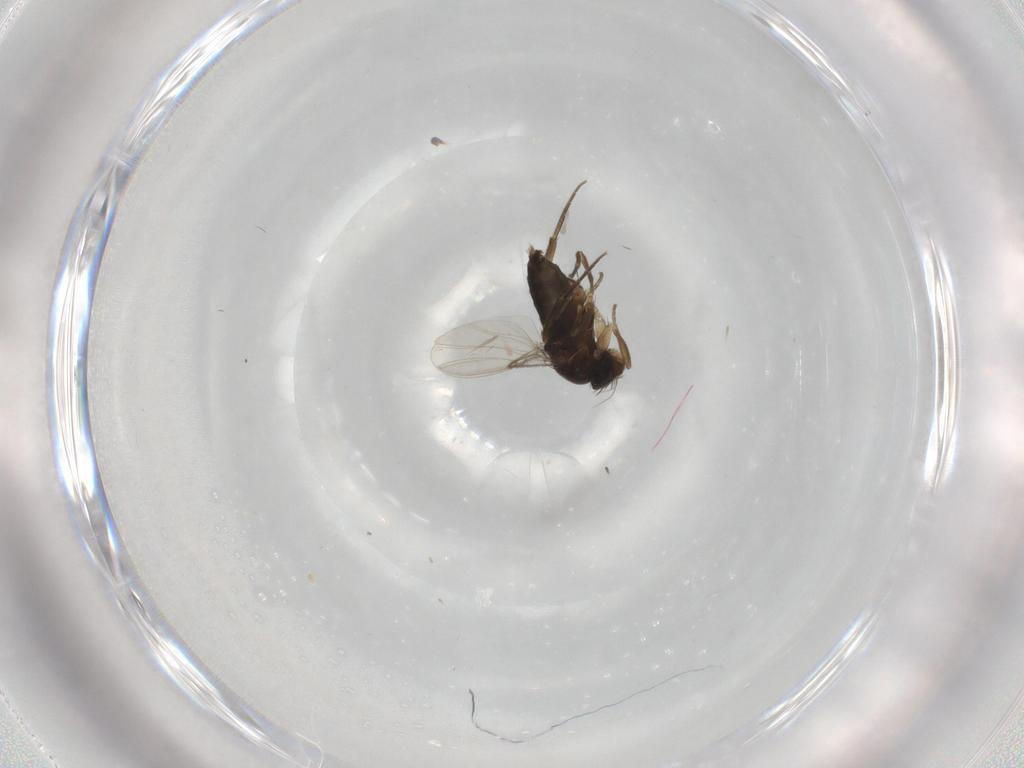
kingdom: Animalia
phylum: Arthropoda
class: Insecta
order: Diptera
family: Phoridae
